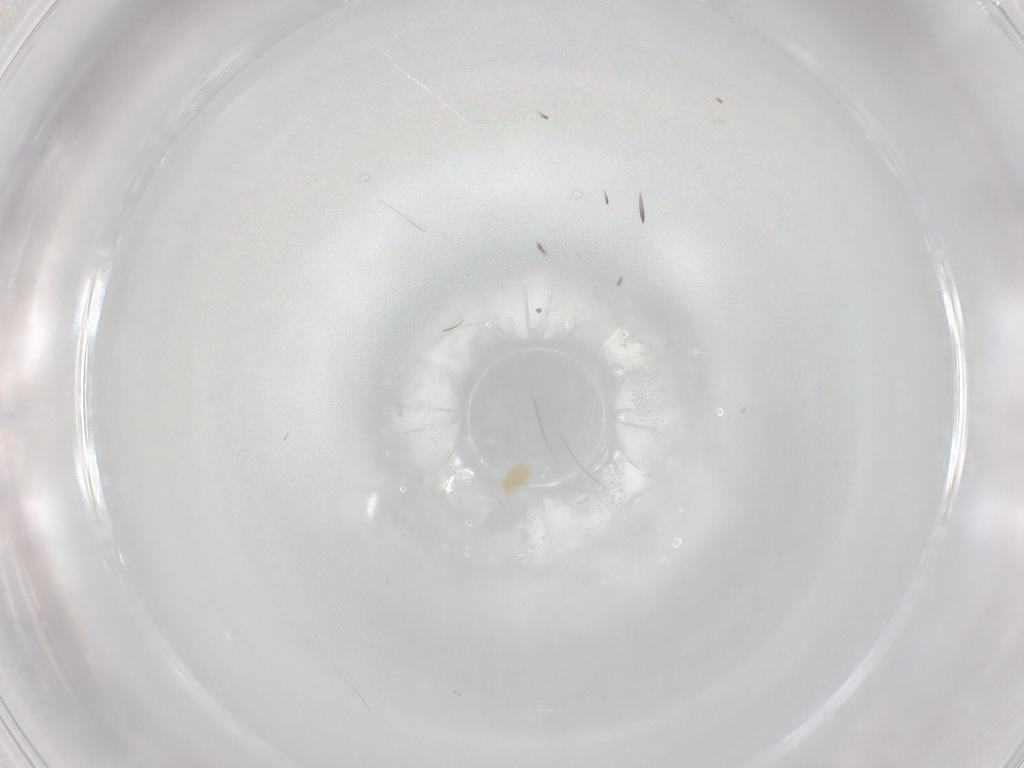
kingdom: Animalia
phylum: Arthropoda
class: Arachnida
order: Trombidiformes
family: Eupodidae
